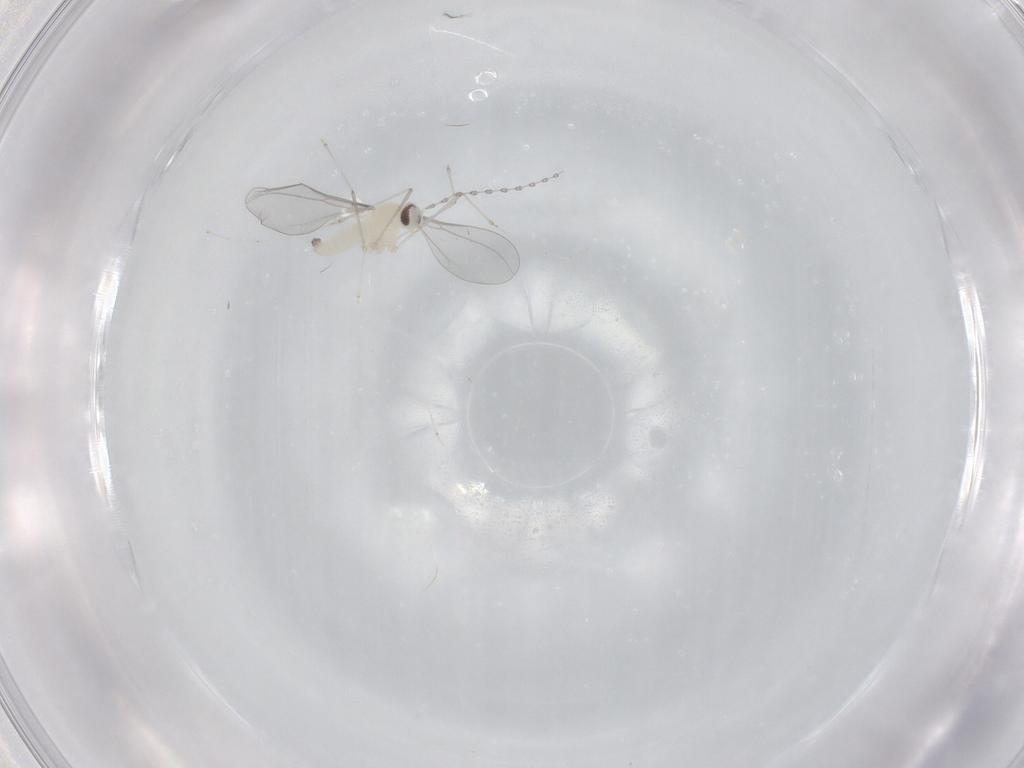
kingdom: Animalia
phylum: Arthropoda
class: Insecta
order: Diptera
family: Cecidomyiidae
